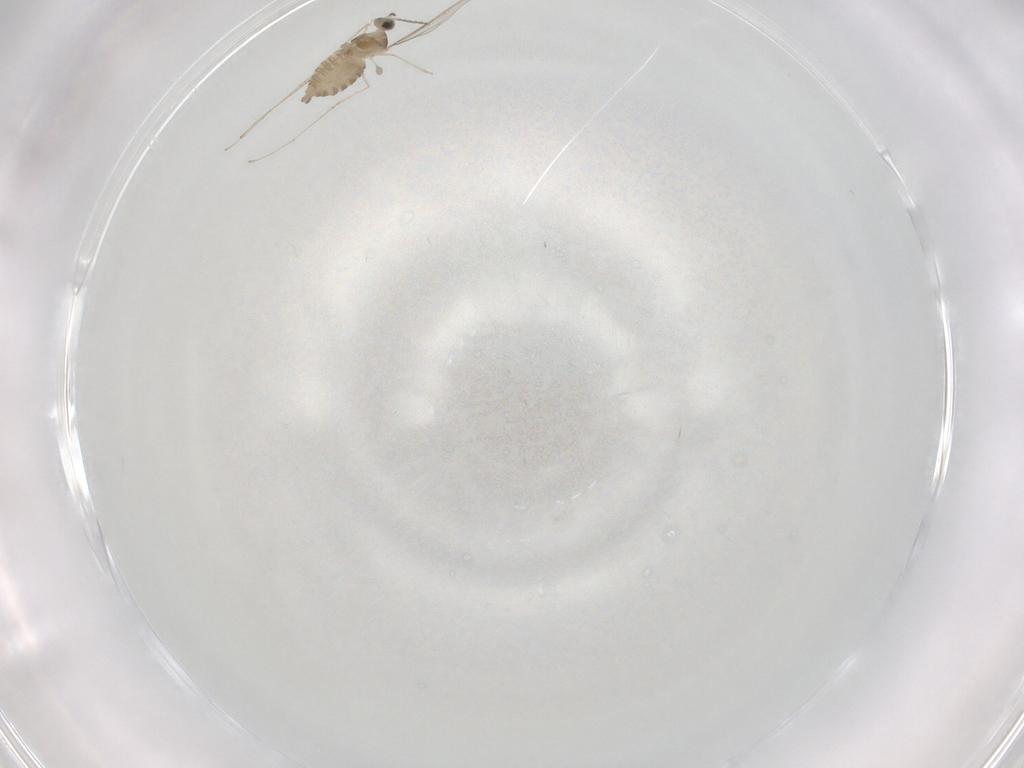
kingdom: Animalia
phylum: Arthropoda
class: Insecta
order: Diptera
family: Cecidomyiidae
